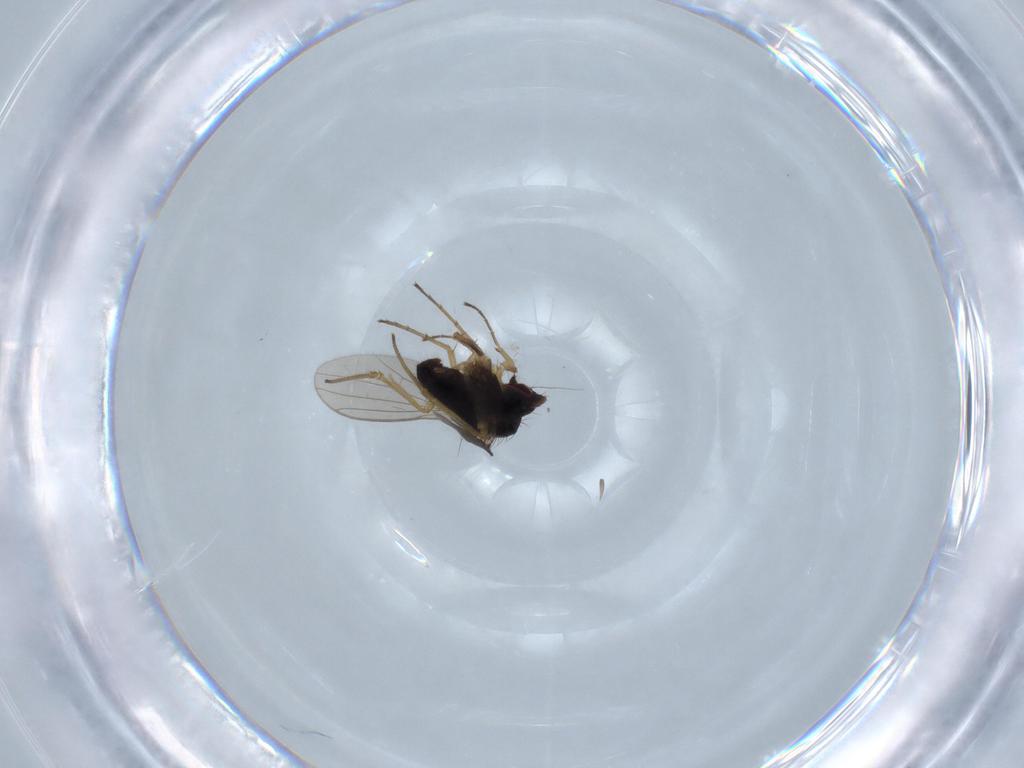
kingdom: Animalia
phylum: Arthropoda
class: Insecta
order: Diptera
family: Dolichopodidae
